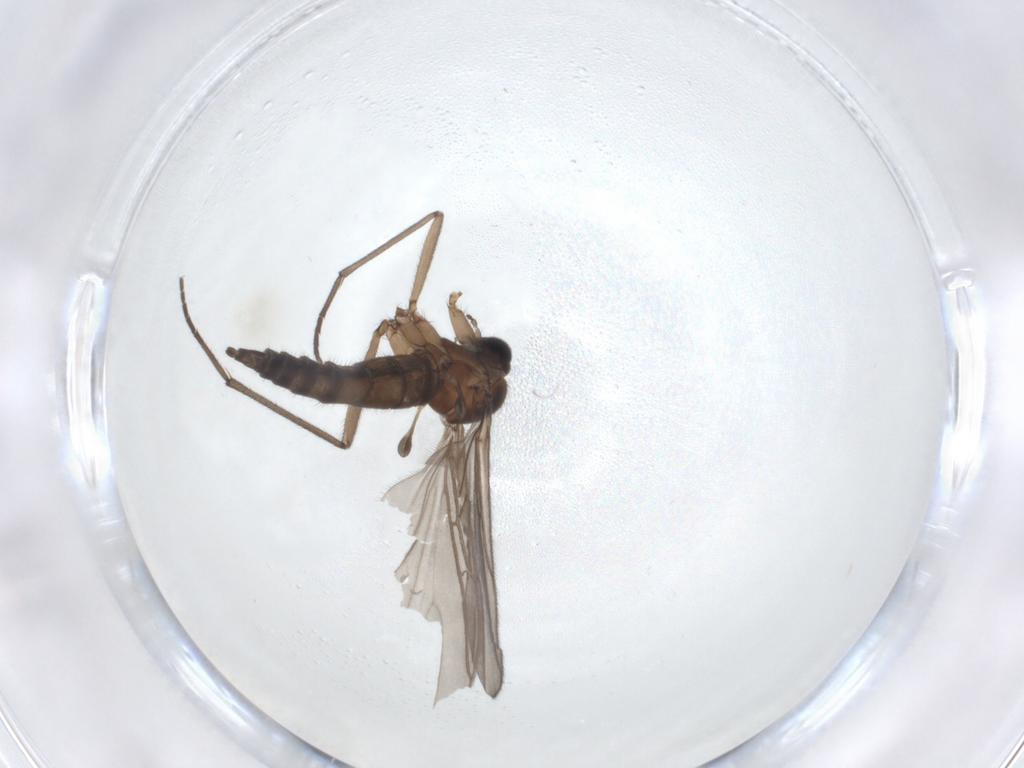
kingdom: Animalia
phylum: Arthropoda
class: Insecta
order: Diptera
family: Sciaridae
